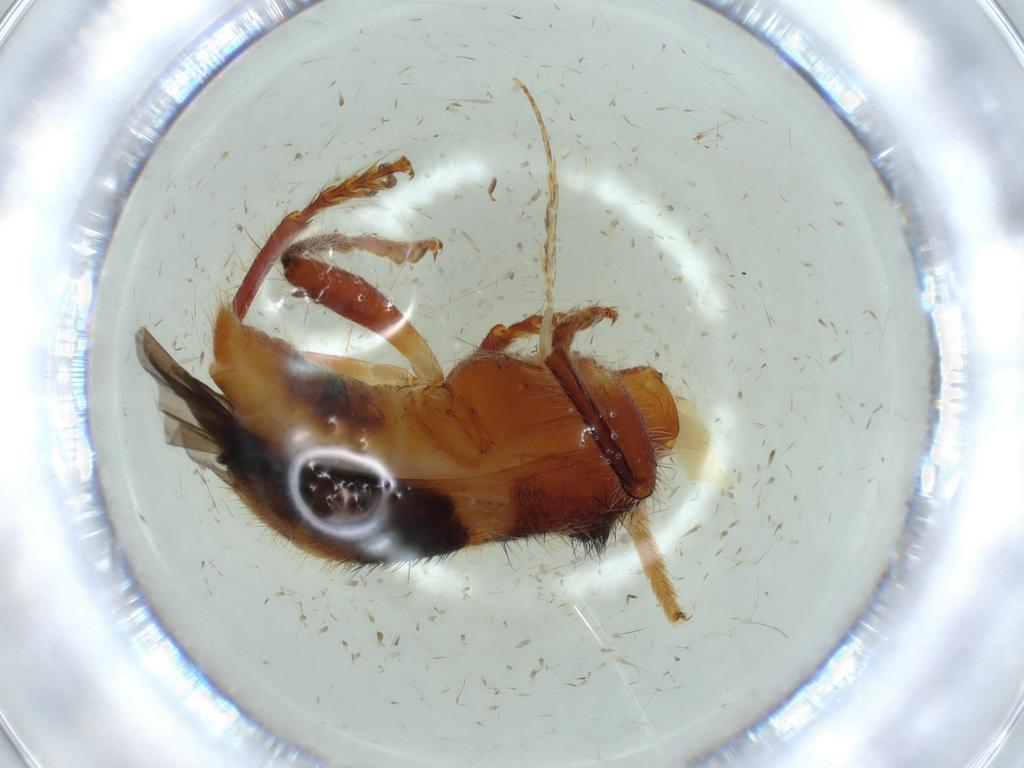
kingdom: Animalia
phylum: Arthropoda
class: Insecta
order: Coleoptera
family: Cleridae
